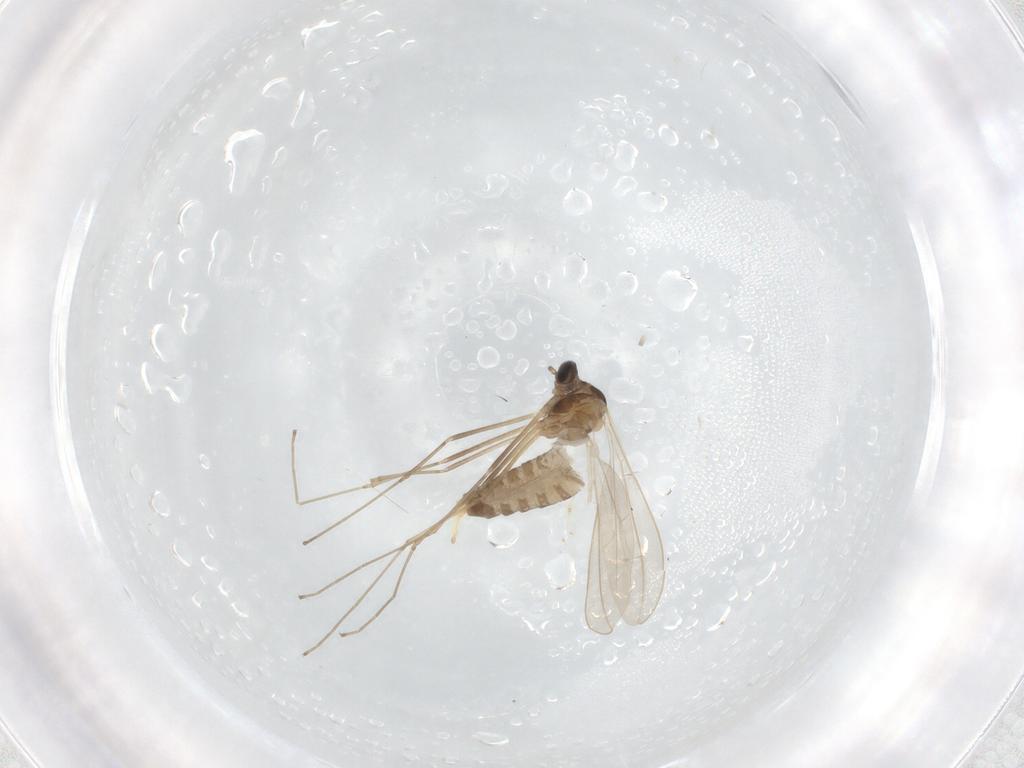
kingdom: Animalia
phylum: Arthropoda
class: Insecta
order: Diptera
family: Cecidomyiidae
